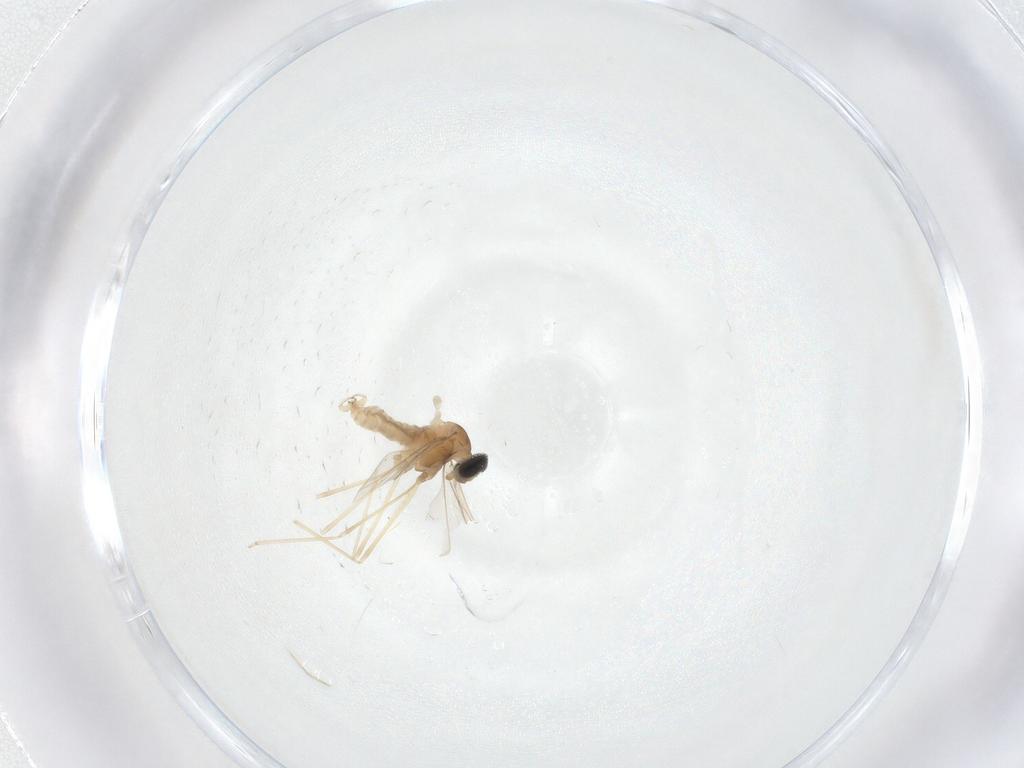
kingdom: Animalia
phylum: Arthropoda
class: Insecta
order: Diptera
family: Cecidomyiidae
